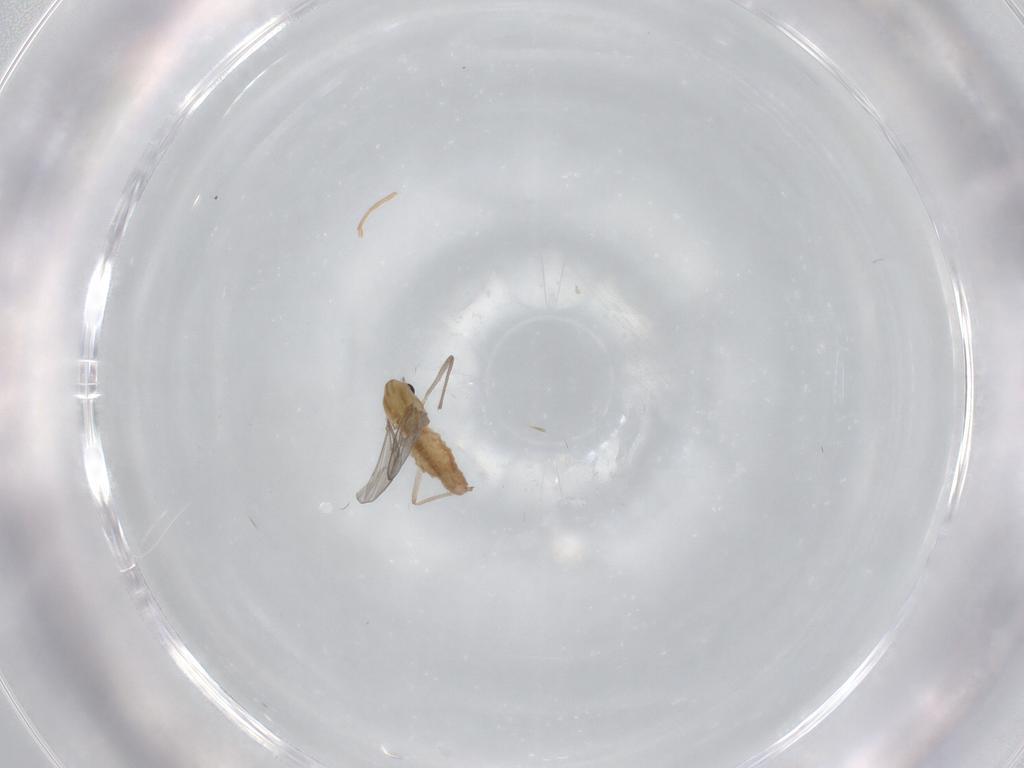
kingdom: Animalia
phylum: Arthropoda
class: Insecta
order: Diptera
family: Chironomidae
